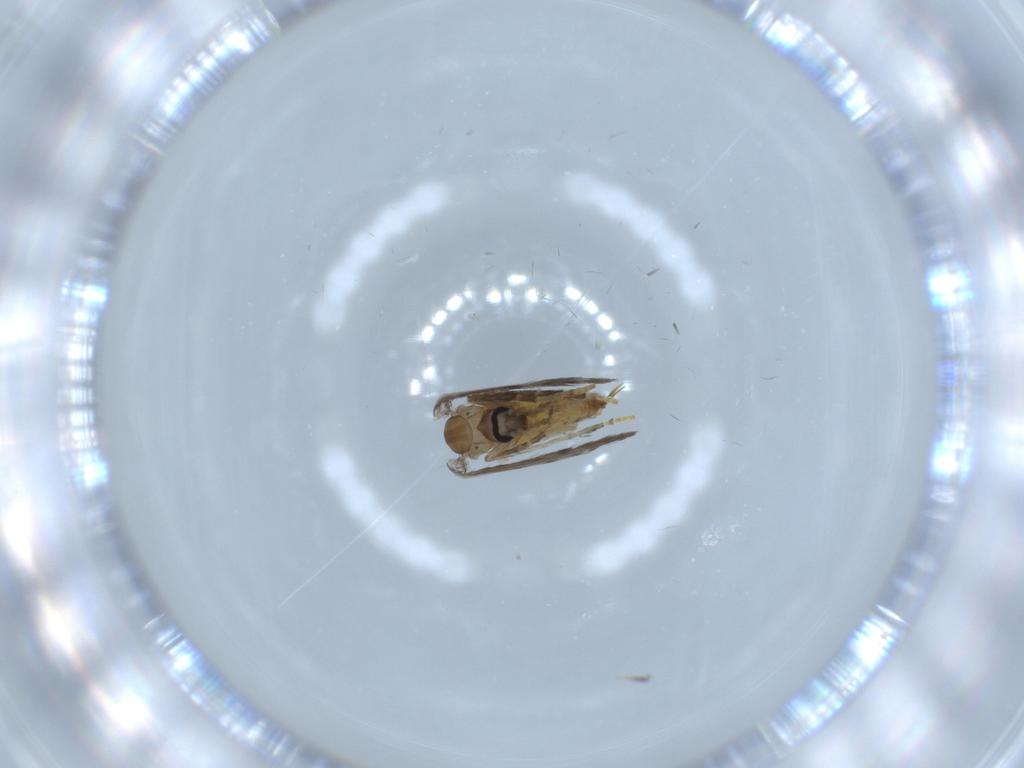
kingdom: Animalia
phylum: Arthropoda
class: Insecta
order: Diptera
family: Psychodidae
